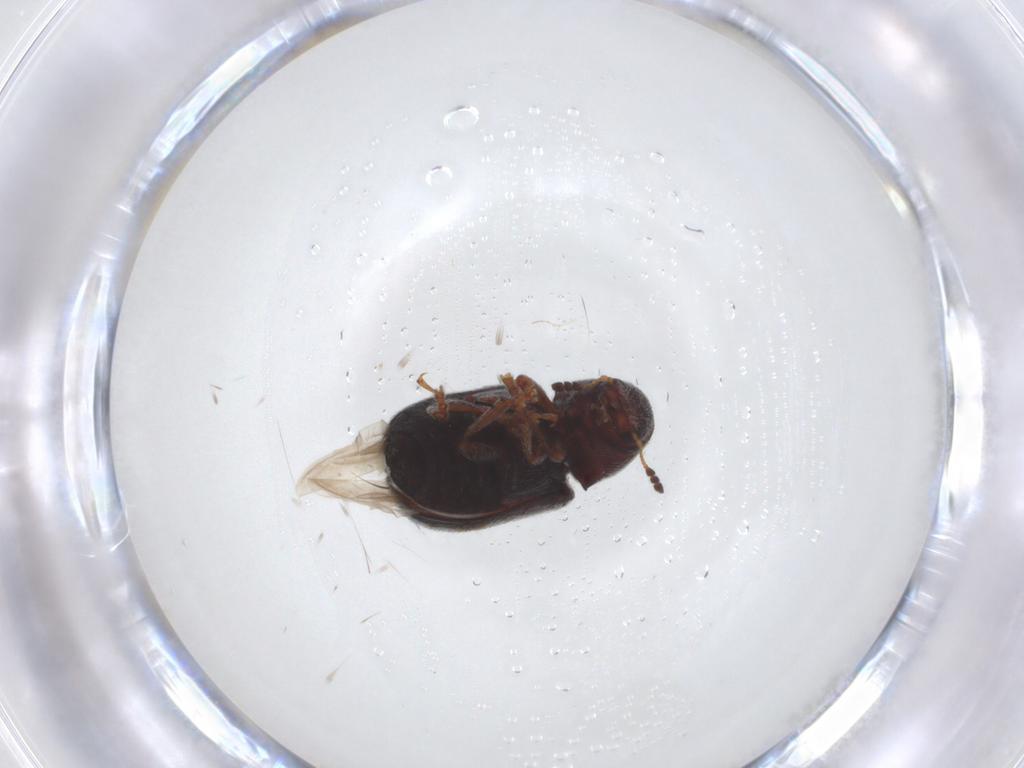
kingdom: Animalia
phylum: Arthropoda
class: Insecta
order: Coleoptera
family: Anthribidae
